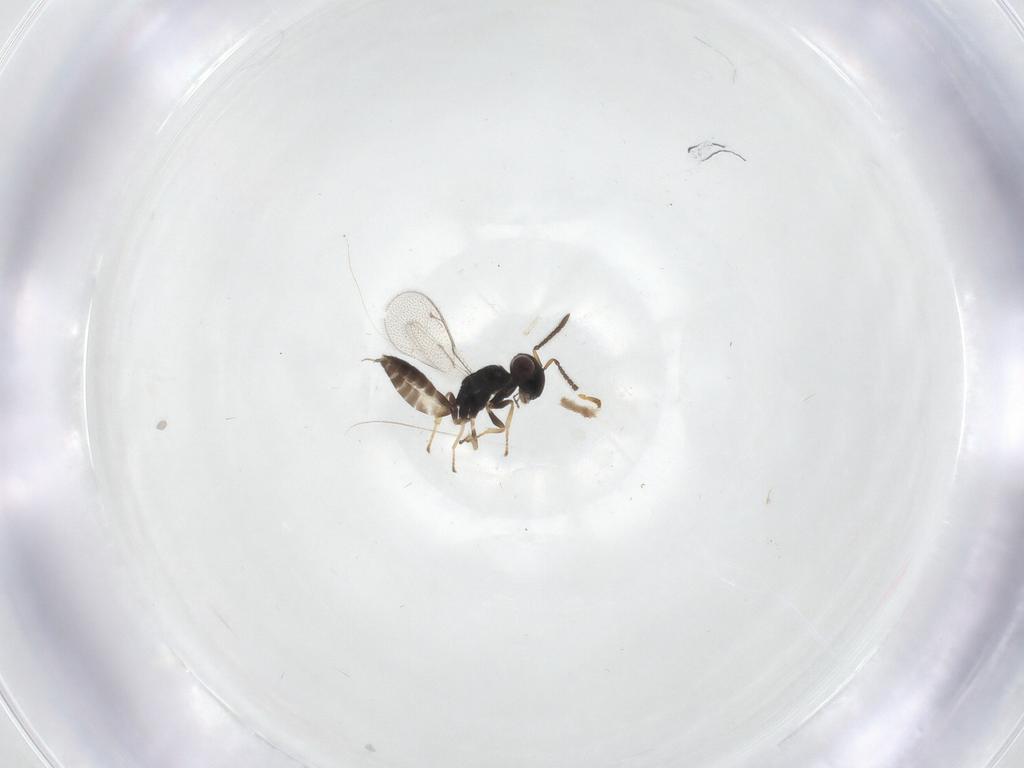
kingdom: Animalia
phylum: Arthropoda
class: Insecta
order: Hymenoptera
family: Pteromalidae
